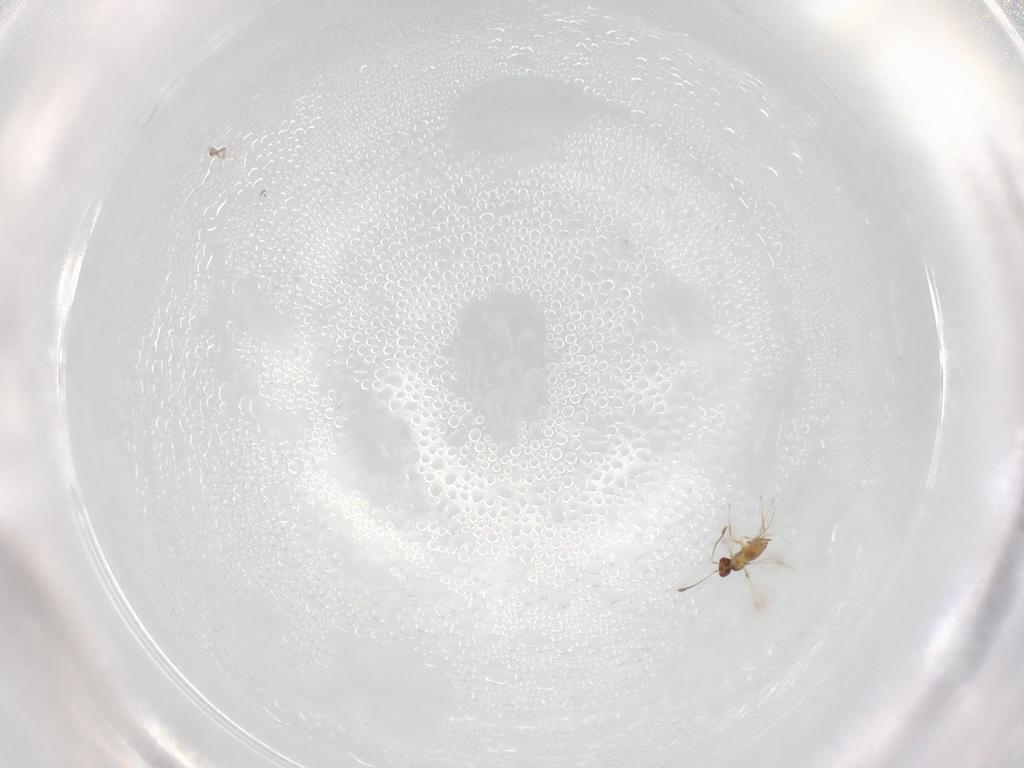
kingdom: Animalia
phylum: Arthropoda
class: Insecta
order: Hymenoptera
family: Mymaridae
